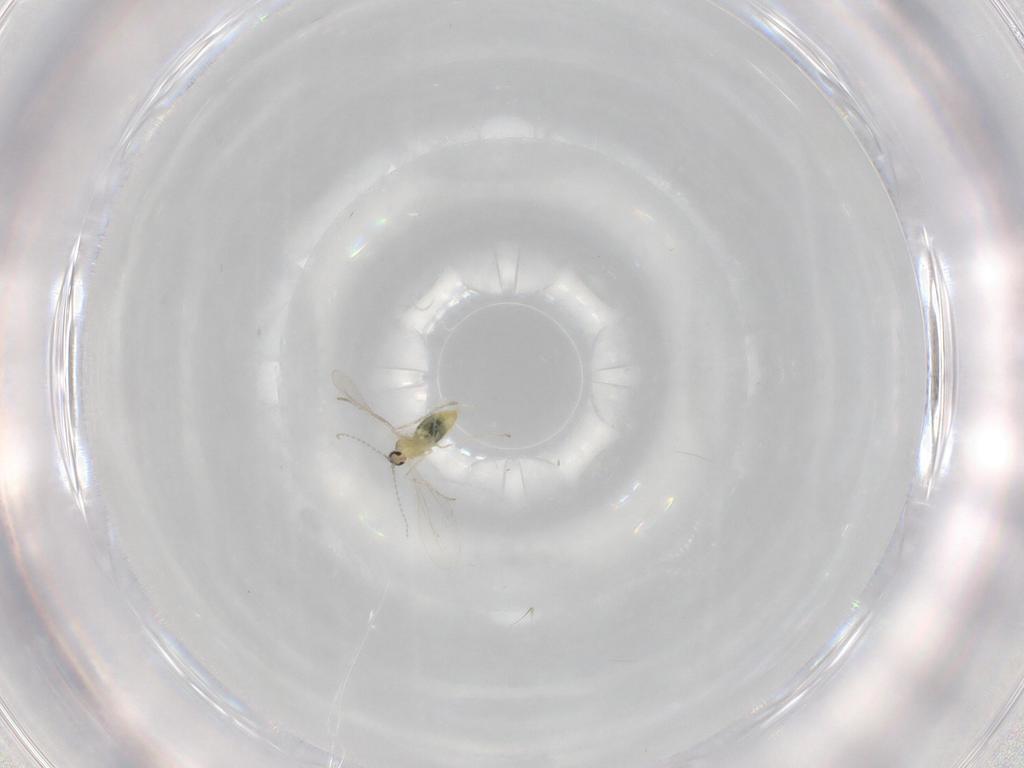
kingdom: Animalia
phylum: Arthropoda
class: Insecta
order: Diptera
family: Cecidomyiidae
